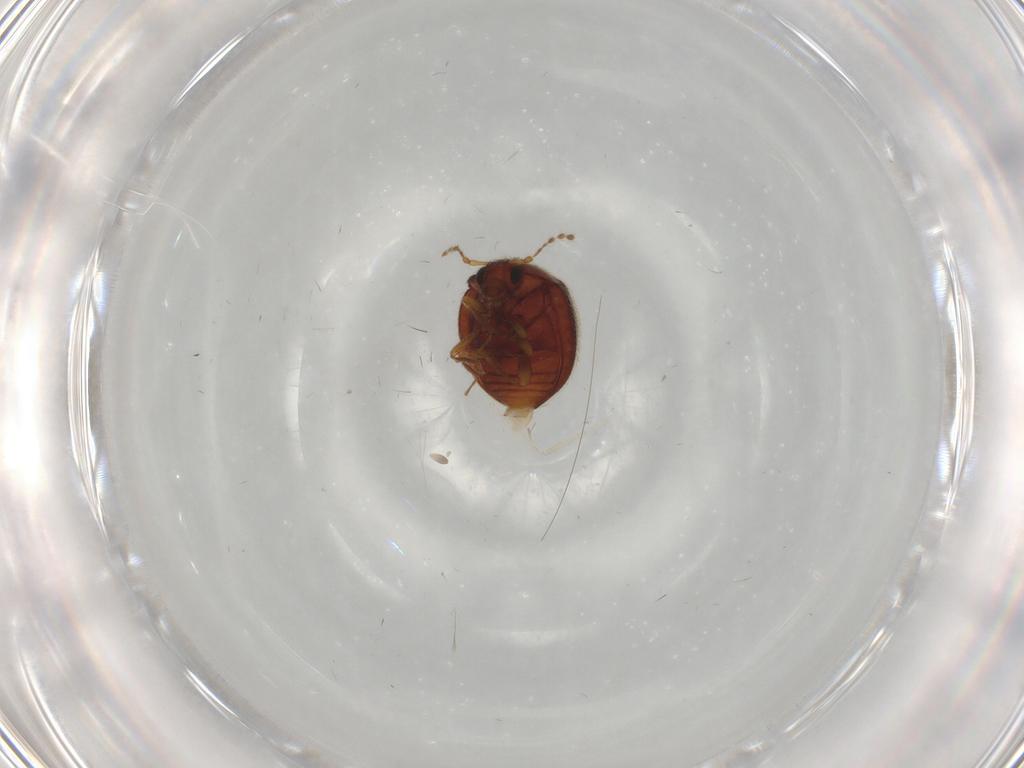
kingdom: Animalia
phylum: Arthropoda
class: Insecta
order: Coleoptera
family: Anamorphidae
